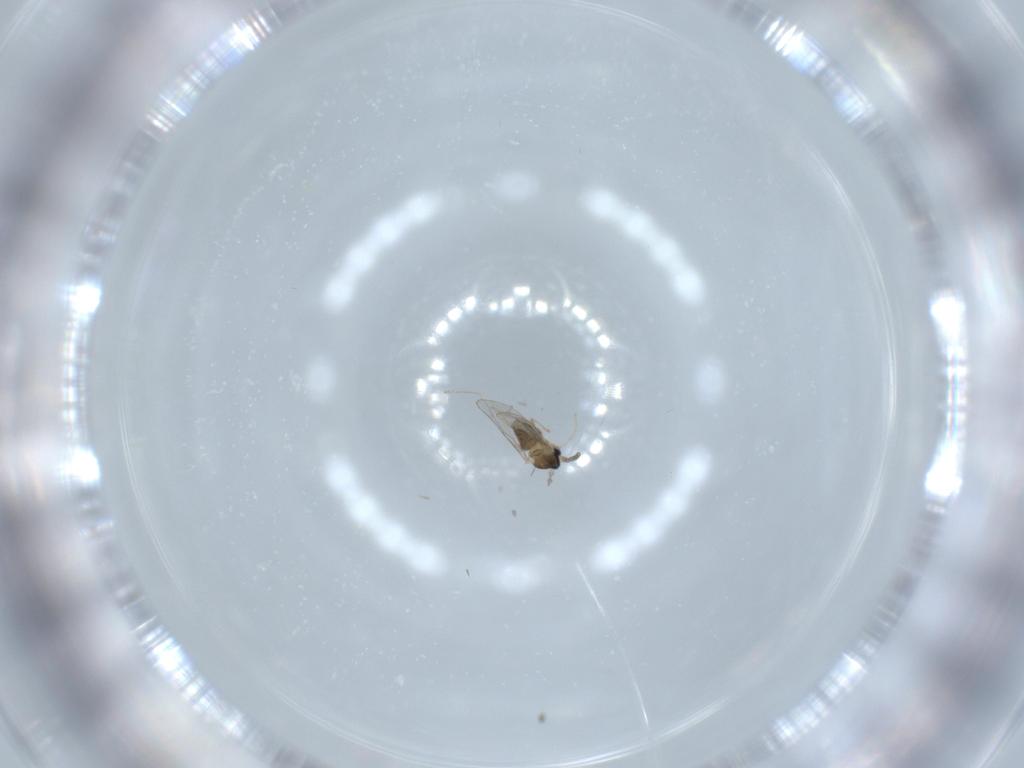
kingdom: Animalia
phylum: Arthropoda
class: Insecta
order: Diptera
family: Cecidomyiidae
